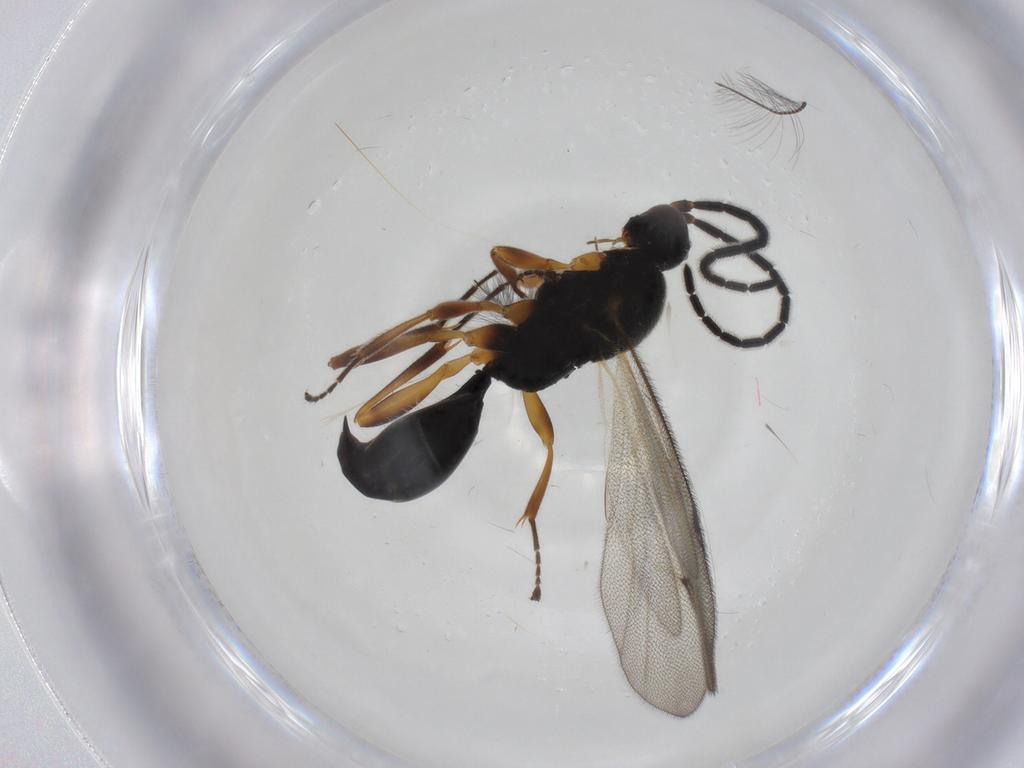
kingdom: Animalia
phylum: Arthropoda
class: Insecta
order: Hymenoptera
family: Proctotrupidae
